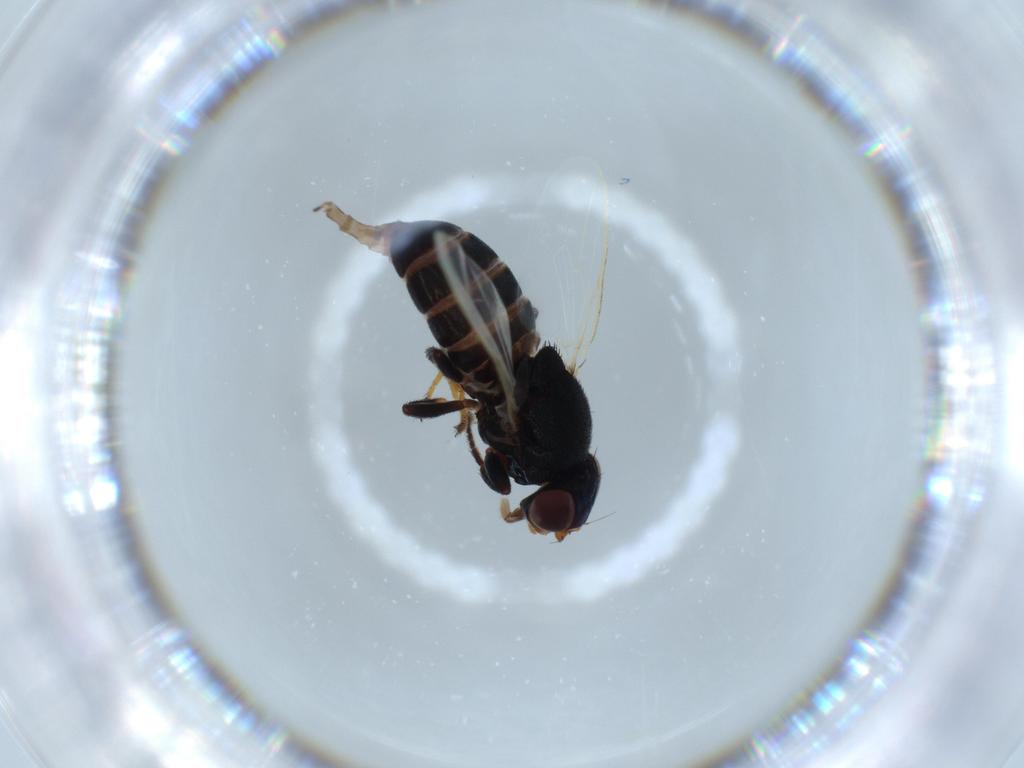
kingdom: Animalia
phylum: Arthropoda
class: Insecta
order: Diptera
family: Chloropidae
